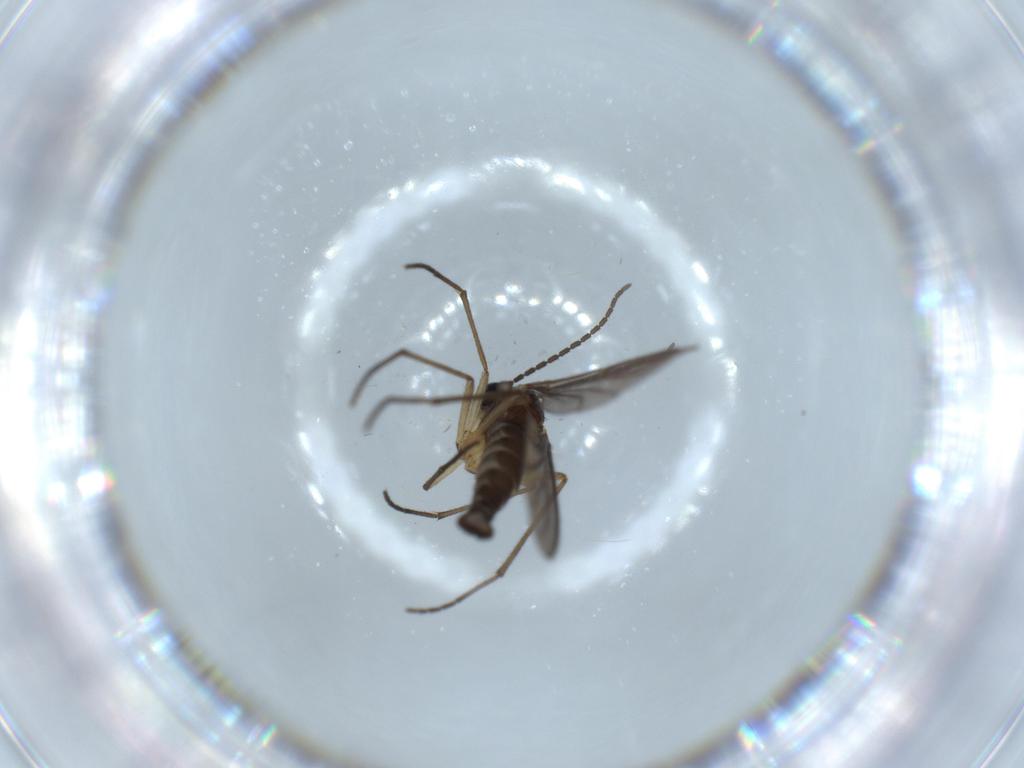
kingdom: Animalia
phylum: Arthropoda
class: Insecta
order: Diptera
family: Sciaridae
